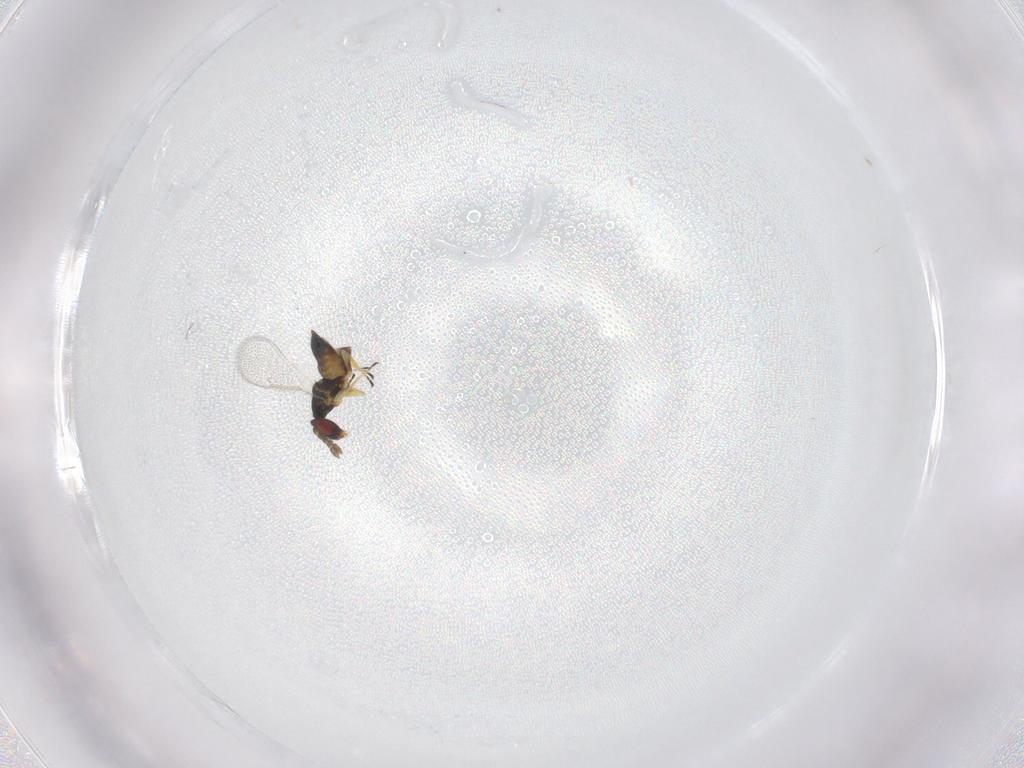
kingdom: Animalia
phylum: Arthropoda
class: Insecta
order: Hymenoptera
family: Eulophidae
